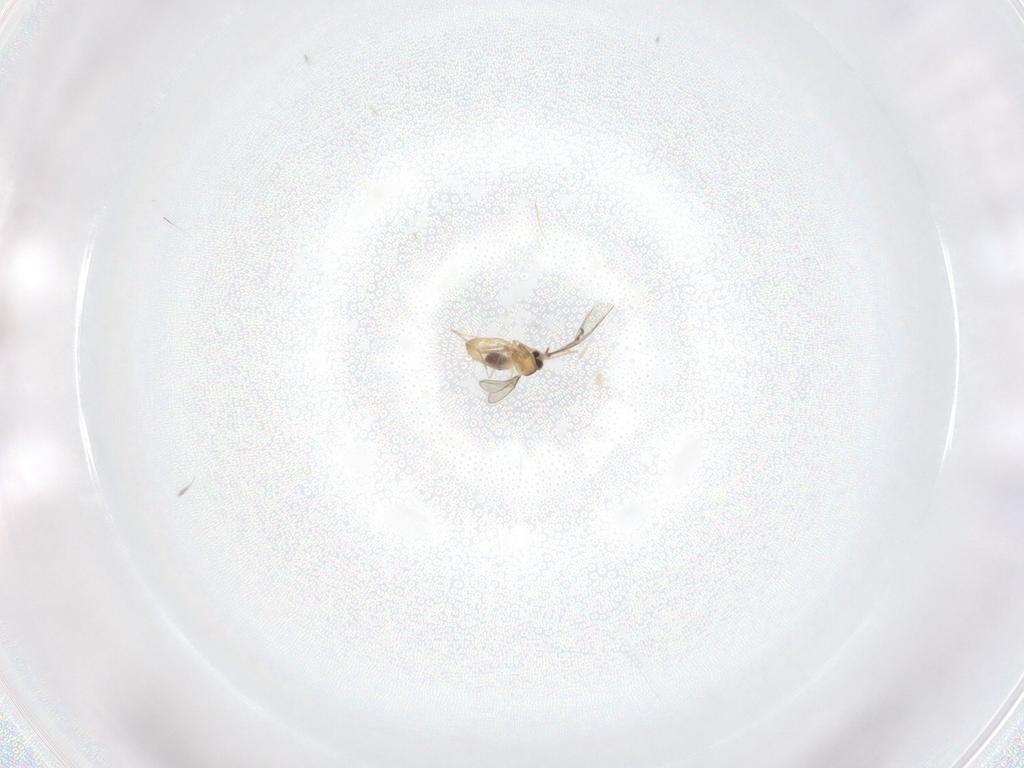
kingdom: Animalia
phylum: Arthropoda
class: Insecta
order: Diptera
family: Cecidomyiidae
